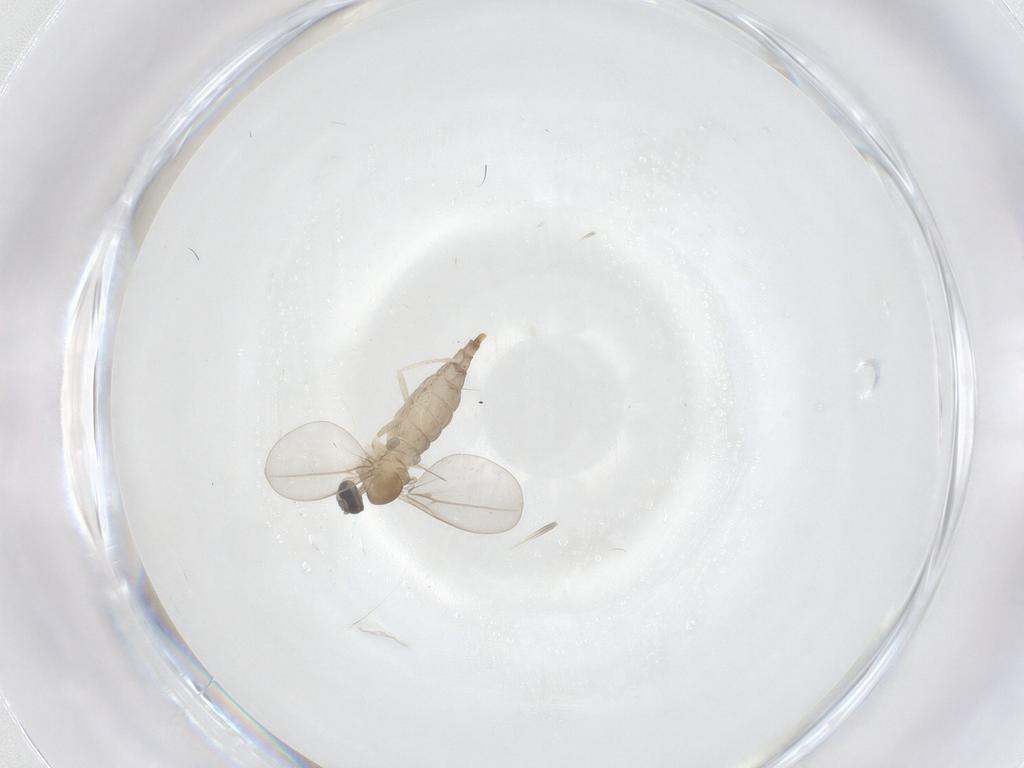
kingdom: Animalia
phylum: Arthropoda
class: Insecta
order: Diptera
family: Cecidomyiidae
